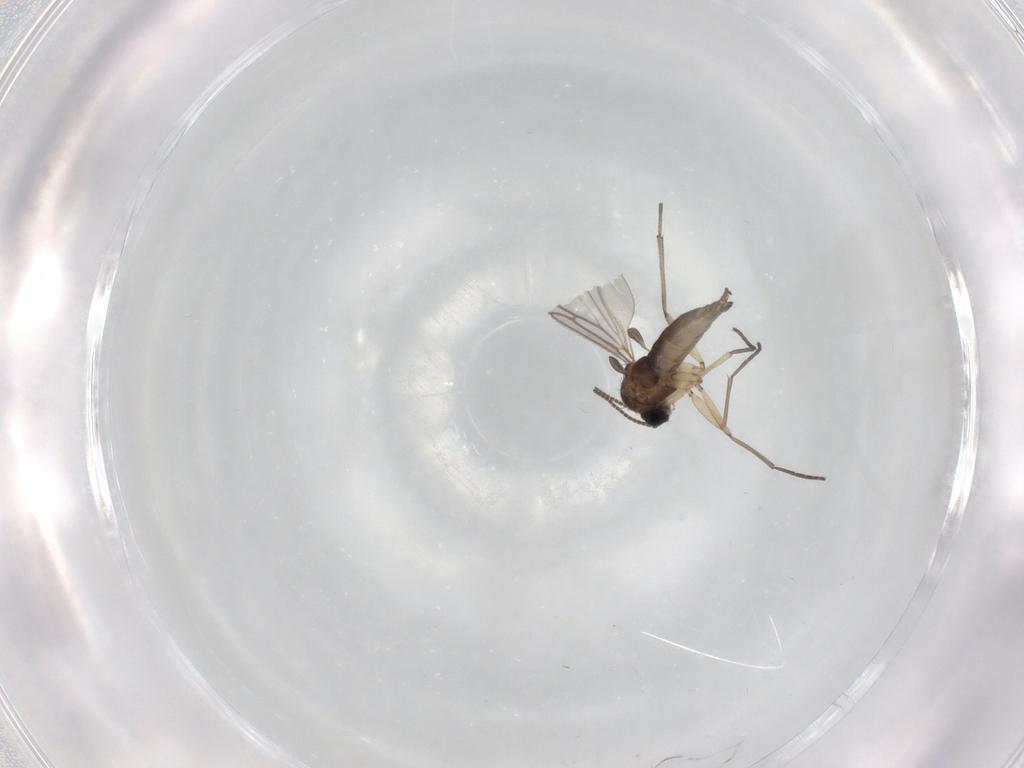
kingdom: Animalia
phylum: Arthropoda
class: Insecta
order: Diptera
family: Sciaridae
